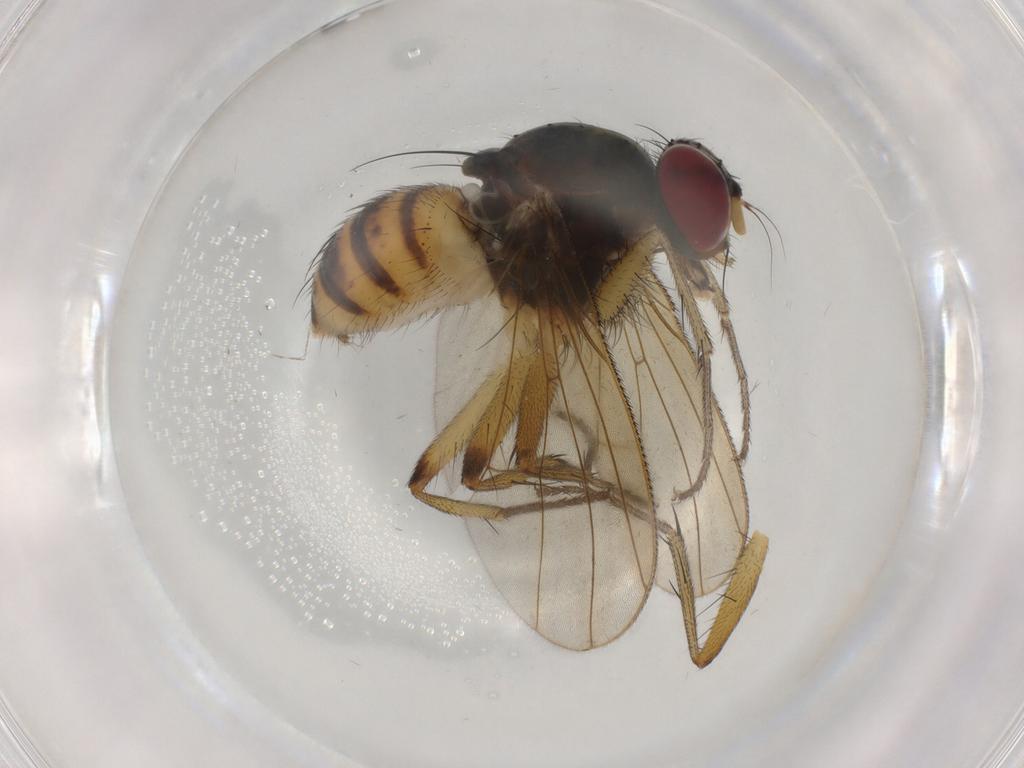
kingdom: Animalia
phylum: Arthropoda
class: Insecta
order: Diptera
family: Sciaridae
